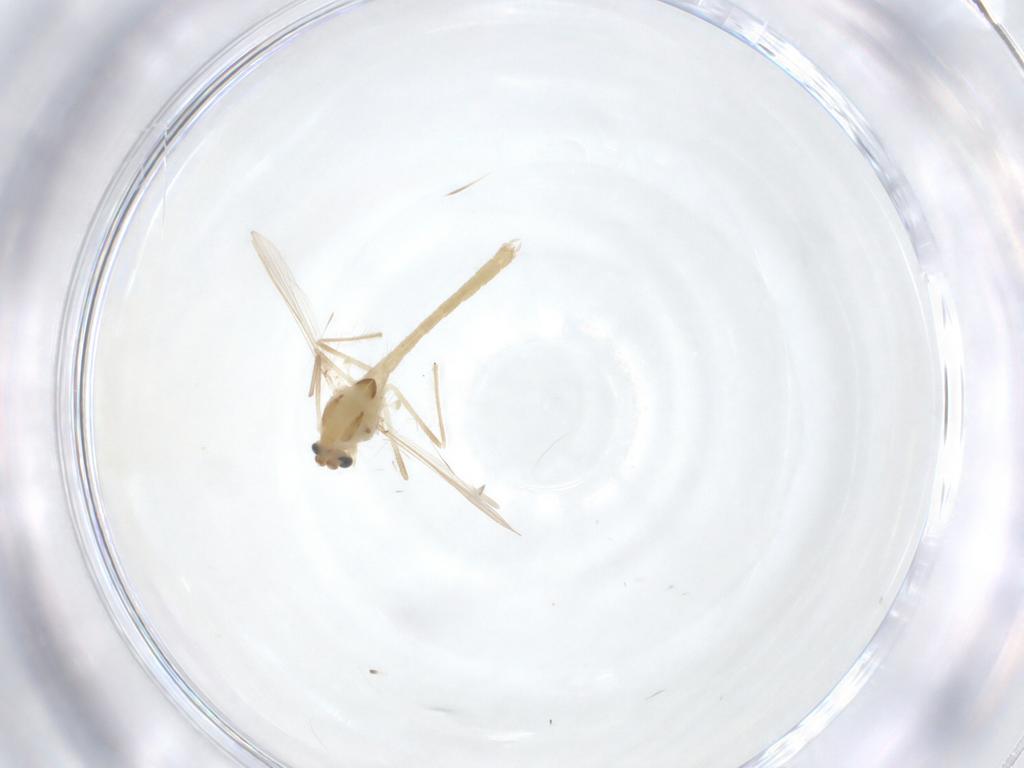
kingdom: Animalia
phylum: Arthropoda
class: Insecta
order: Diptera
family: Chironomidae
